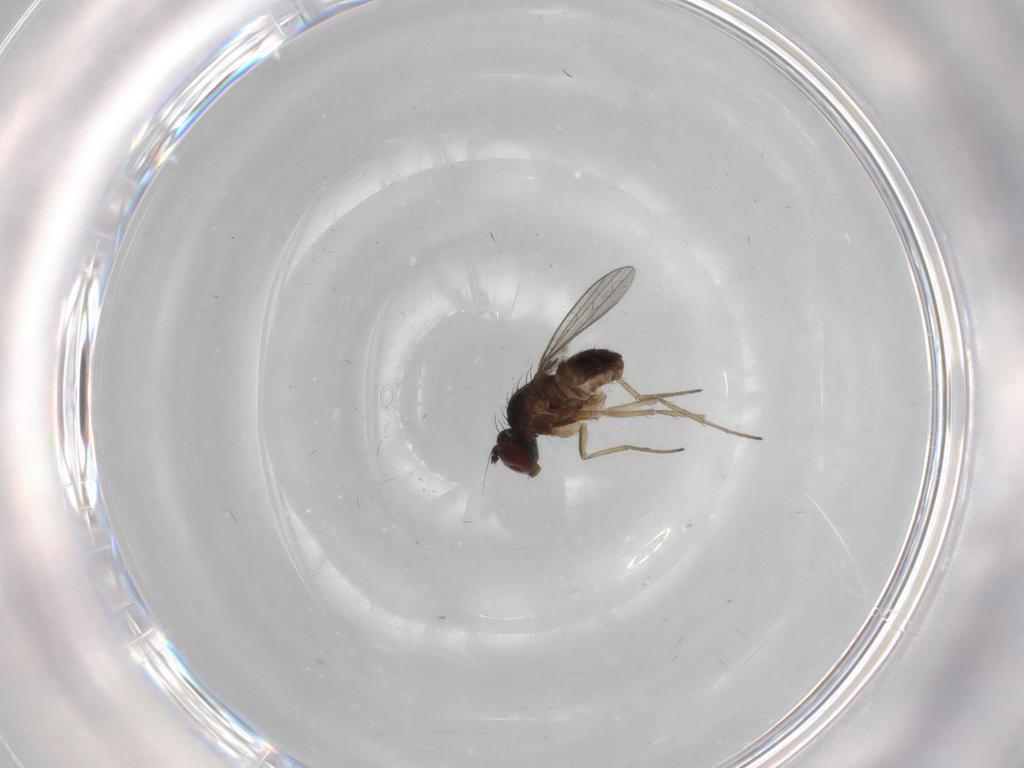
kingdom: Animalia
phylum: Arthropoda
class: Insecta
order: Diptera
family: Dolichopodidae
